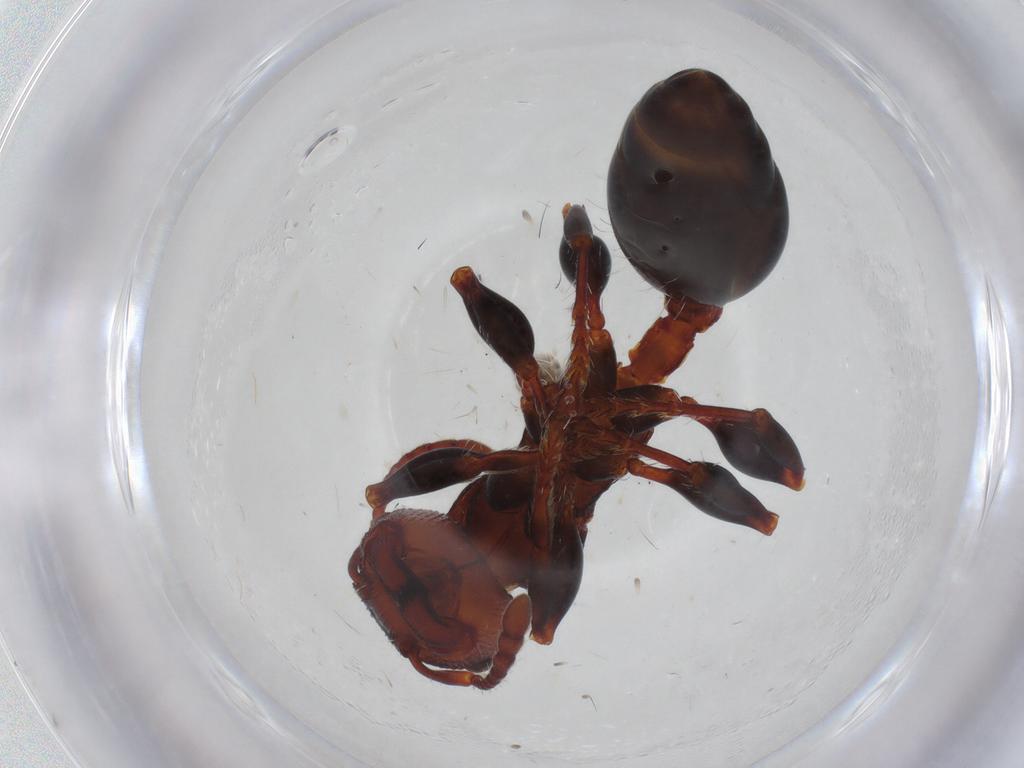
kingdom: Animalia
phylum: Arthropoda
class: Insecta
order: Hymenoptera
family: Formicidae
